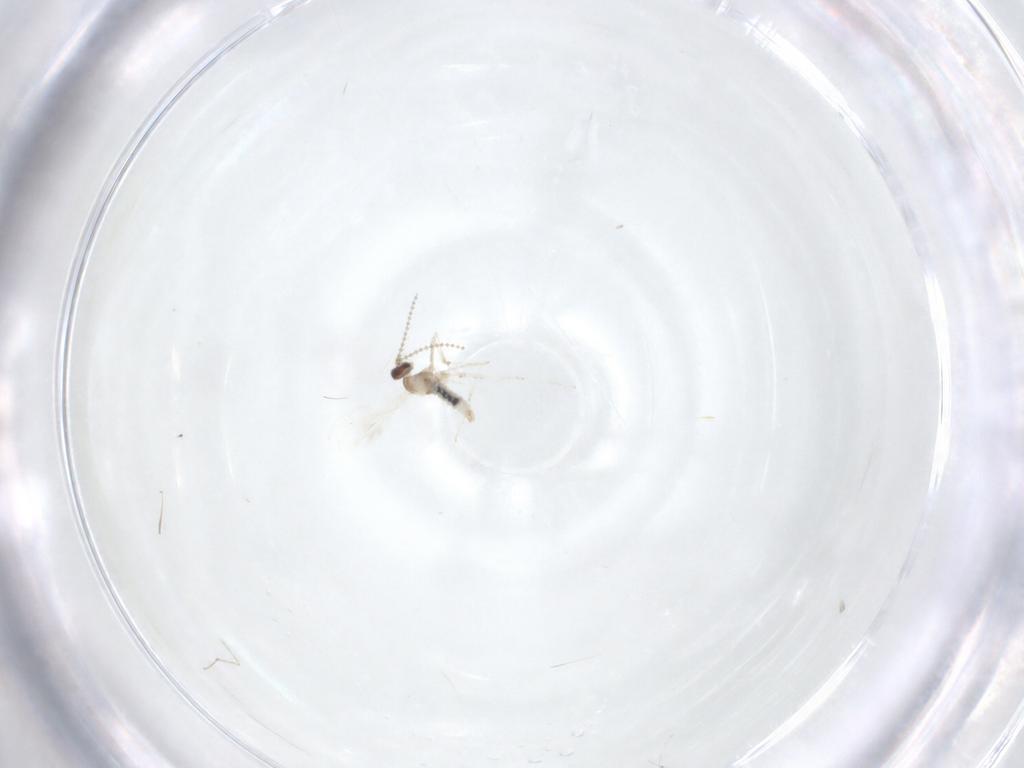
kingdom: Animalia
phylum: Arthropoda
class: Insecta
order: Diptera
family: Cecidomyiidae
